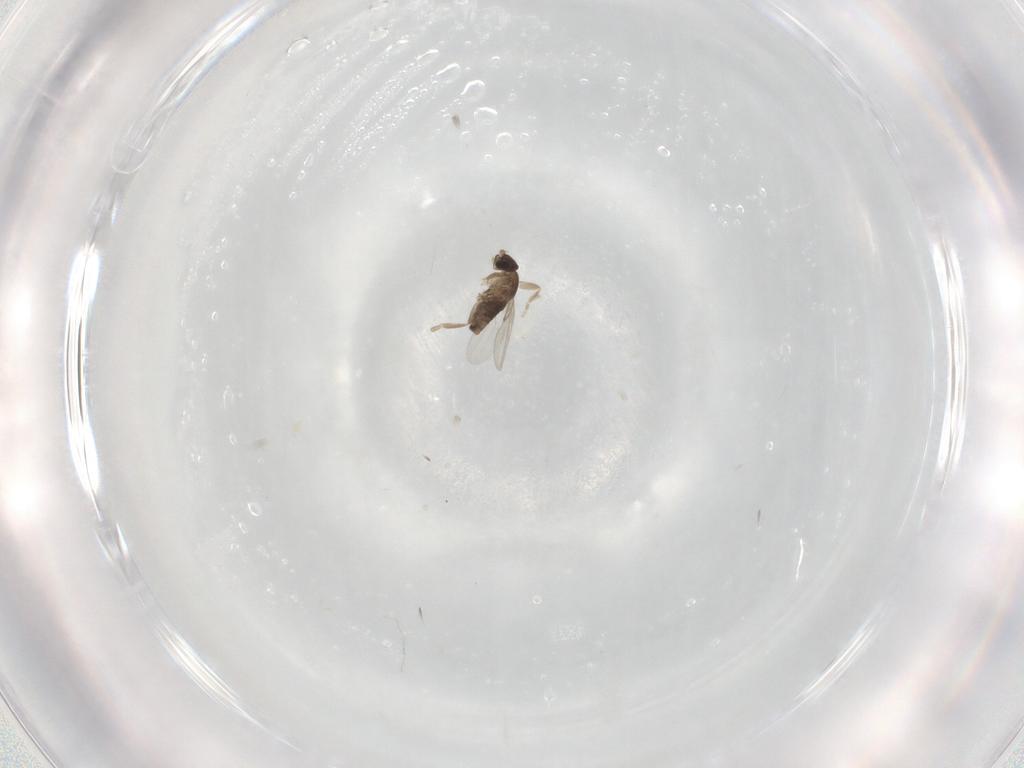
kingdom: Animalia
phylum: Arthropoda
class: Insecta
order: Diptera
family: Phoridae
